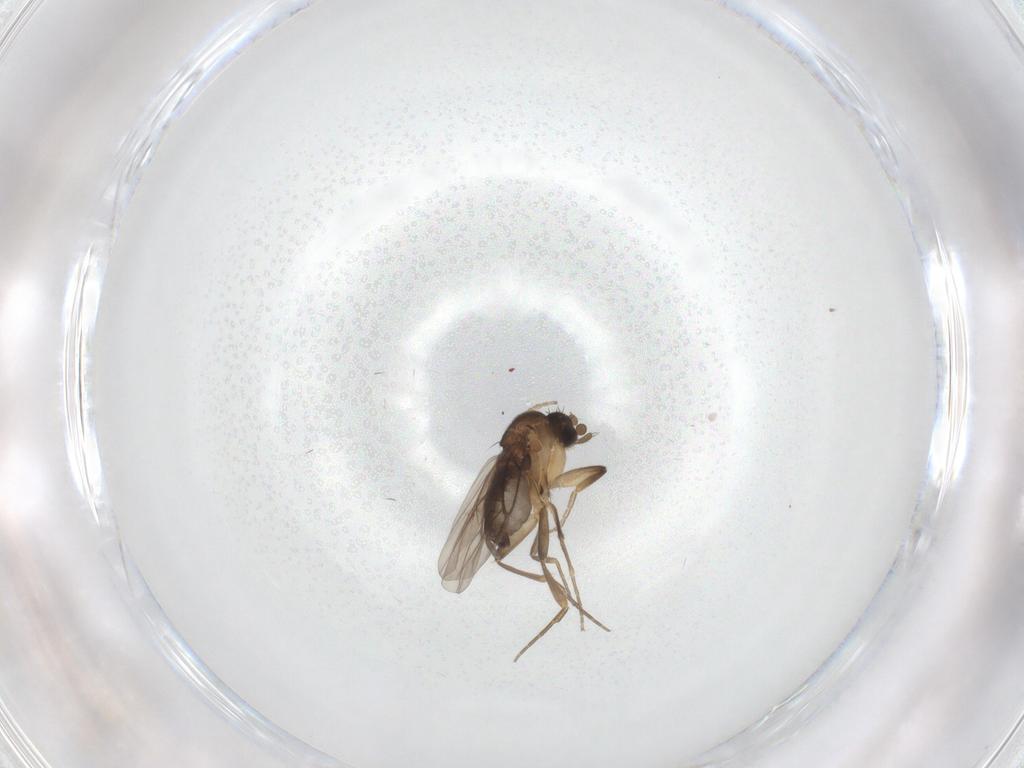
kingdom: Animalia
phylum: Arthropoda
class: Insecta
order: Diptera
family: Phoridae
